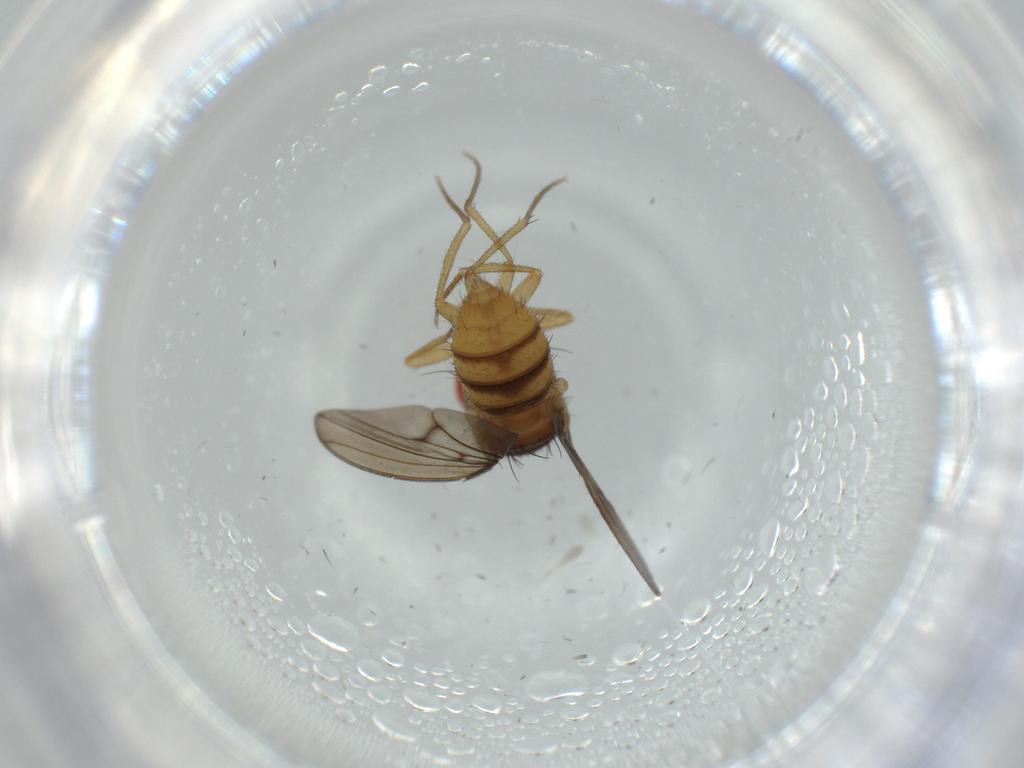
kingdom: Animalia
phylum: Arthropoda
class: Insecta
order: Diptera
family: Drosophilidae
